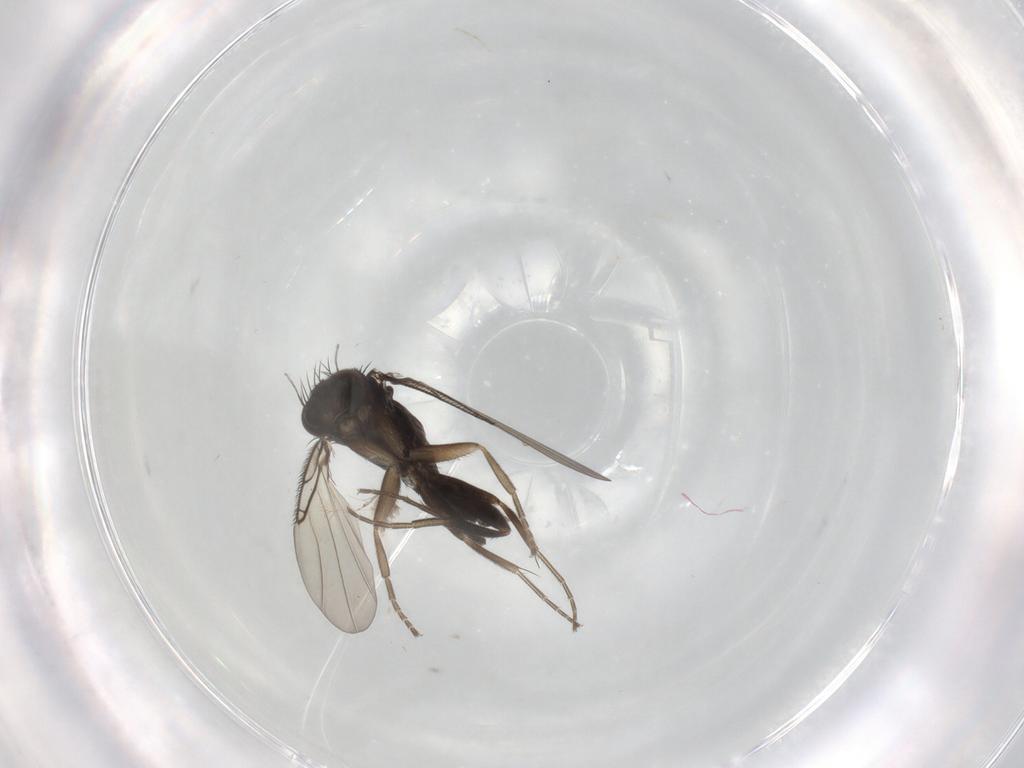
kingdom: Animalia
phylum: Arthropoda
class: Insecta
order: Diptera
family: Phoridae
